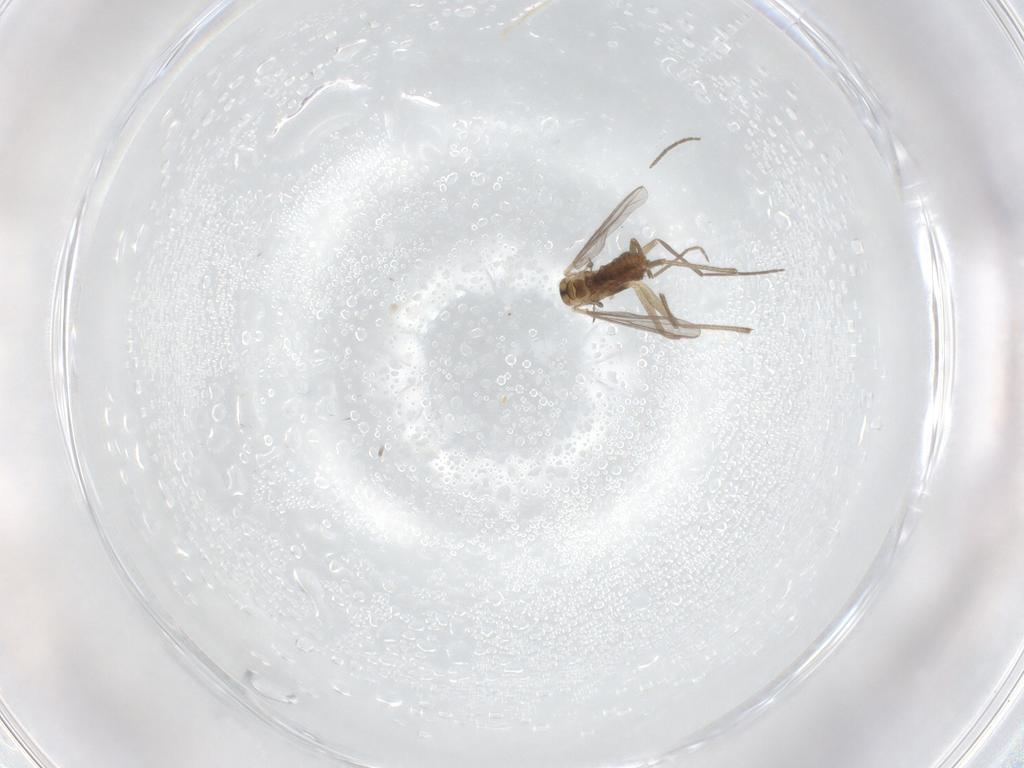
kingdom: Animalia
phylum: Arthropoda
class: Insecta
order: Diptera
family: Chironomidae
